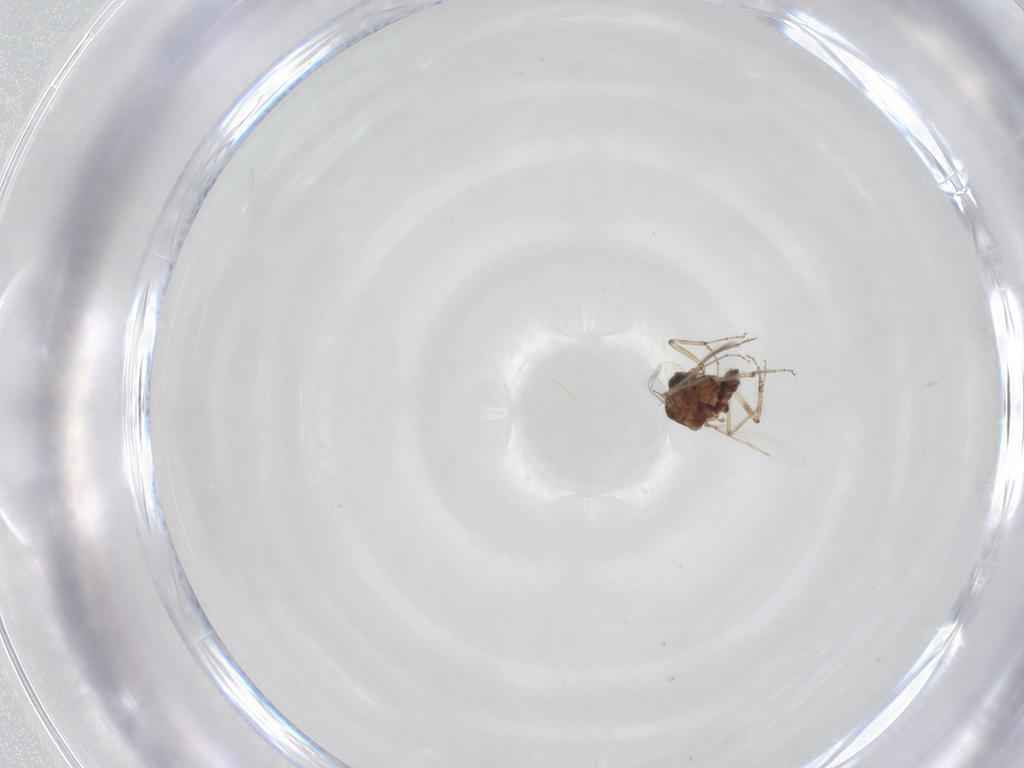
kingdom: Animalia
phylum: Arthropoda
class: Insecta
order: Diptera
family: Ceratopogonidae
